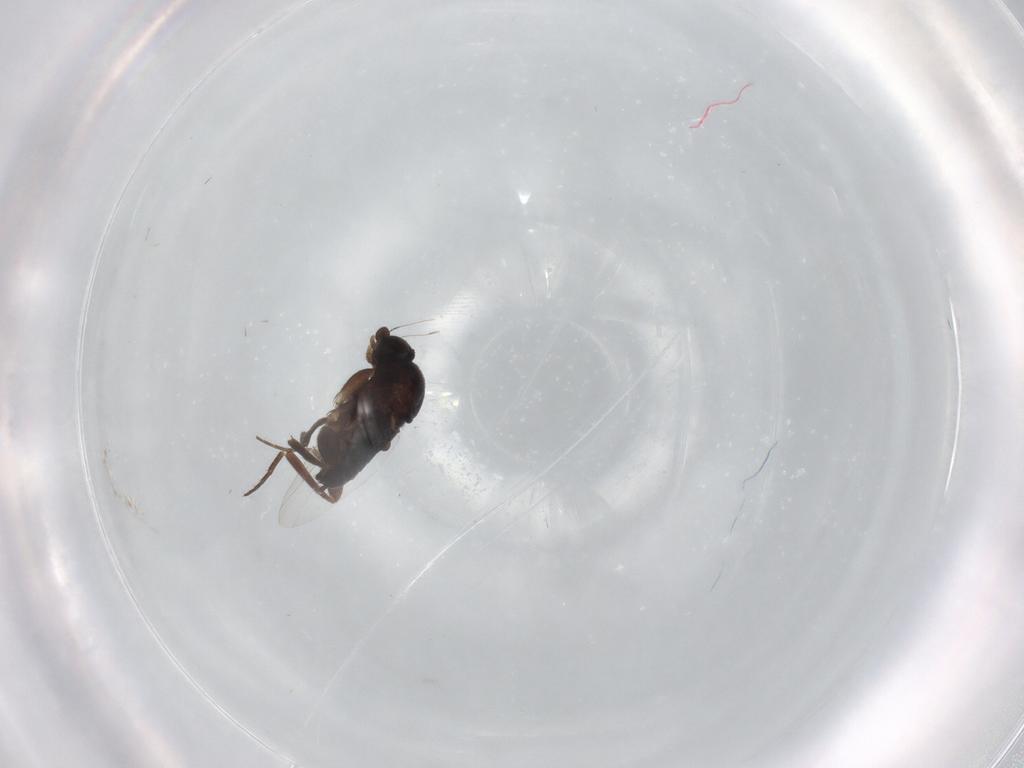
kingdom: Animalia
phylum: Arthropoda
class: Insecta
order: Diptera
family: Phoridae
